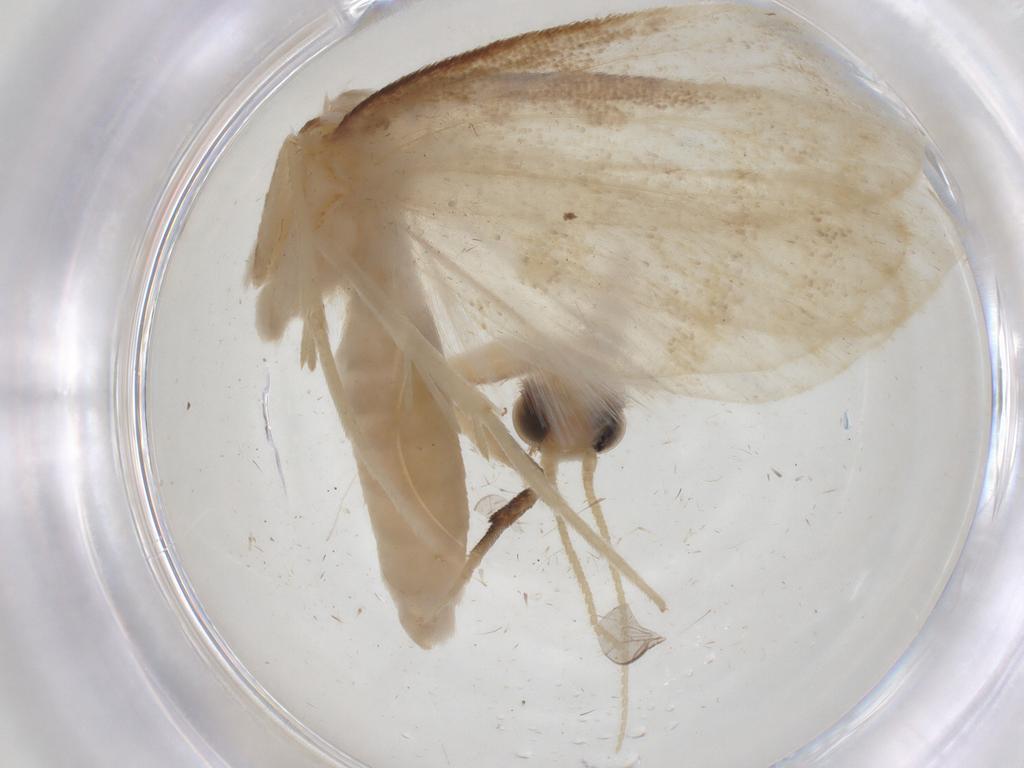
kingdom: Animalia
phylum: Arthropoda
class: Insecta
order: Lepidoptera
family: Crambidae
